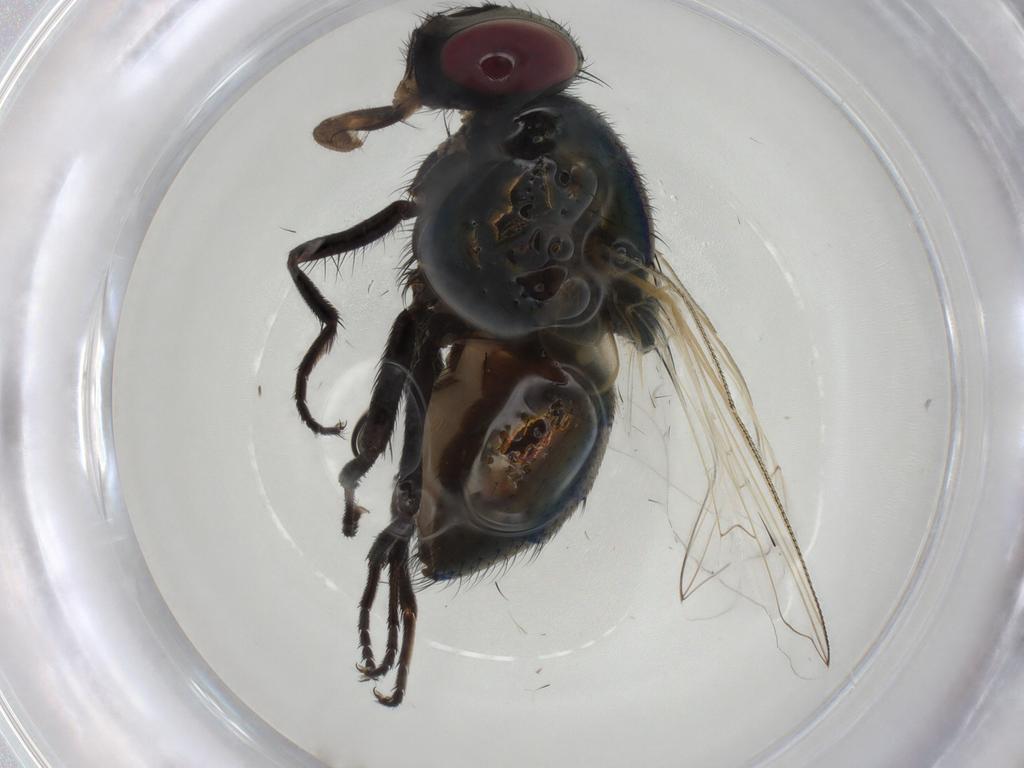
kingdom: Animalia
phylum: Arthropoda
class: Insecta
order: Diptera
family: Muscidae
